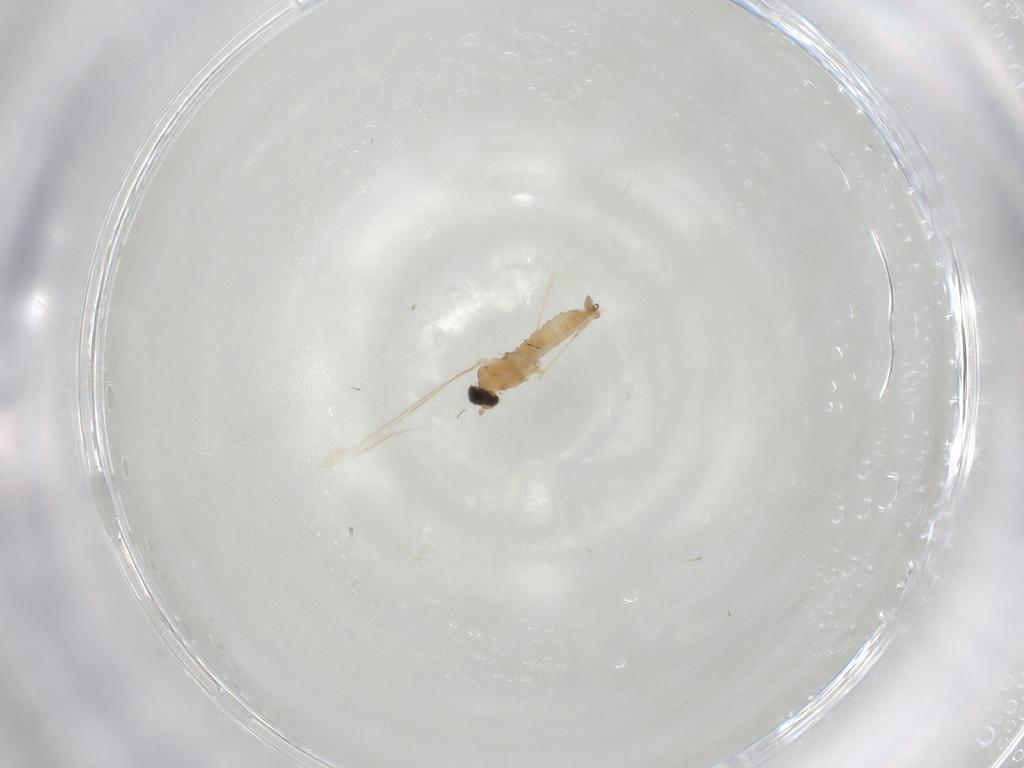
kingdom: Animalia
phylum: Arthropoda
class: Insecta
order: Diptera
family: Cecidomyiidae
